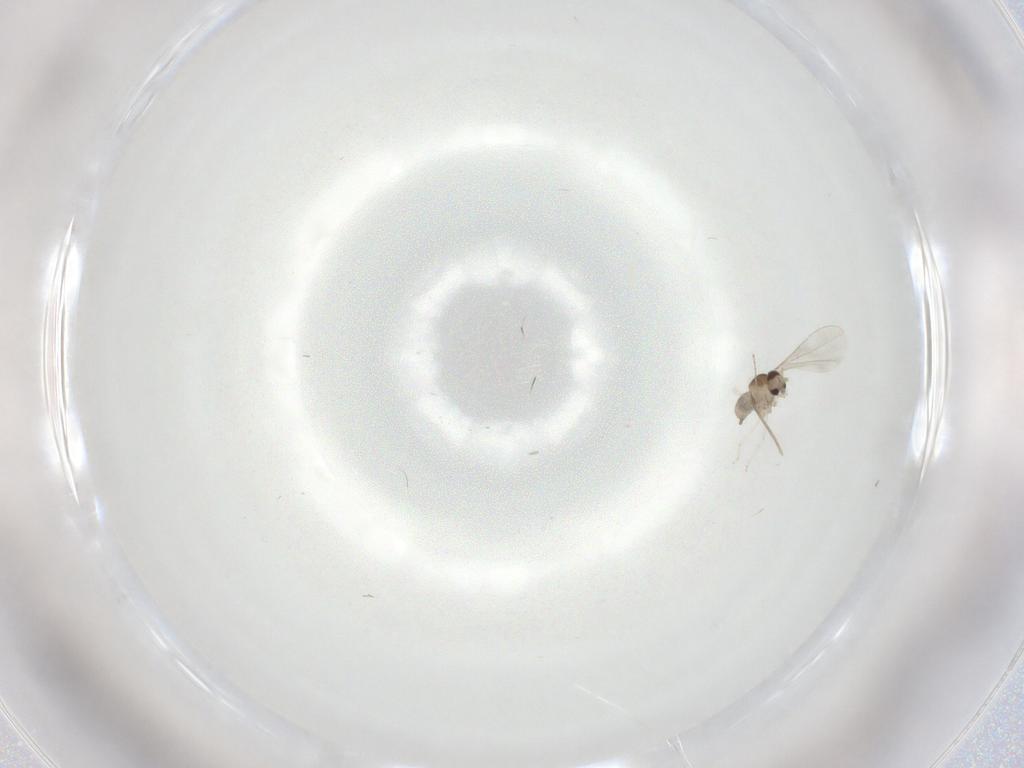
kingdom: Animalia
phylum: Arthropoda
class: Insecta
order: Diptera
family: Cecidomyiidae
